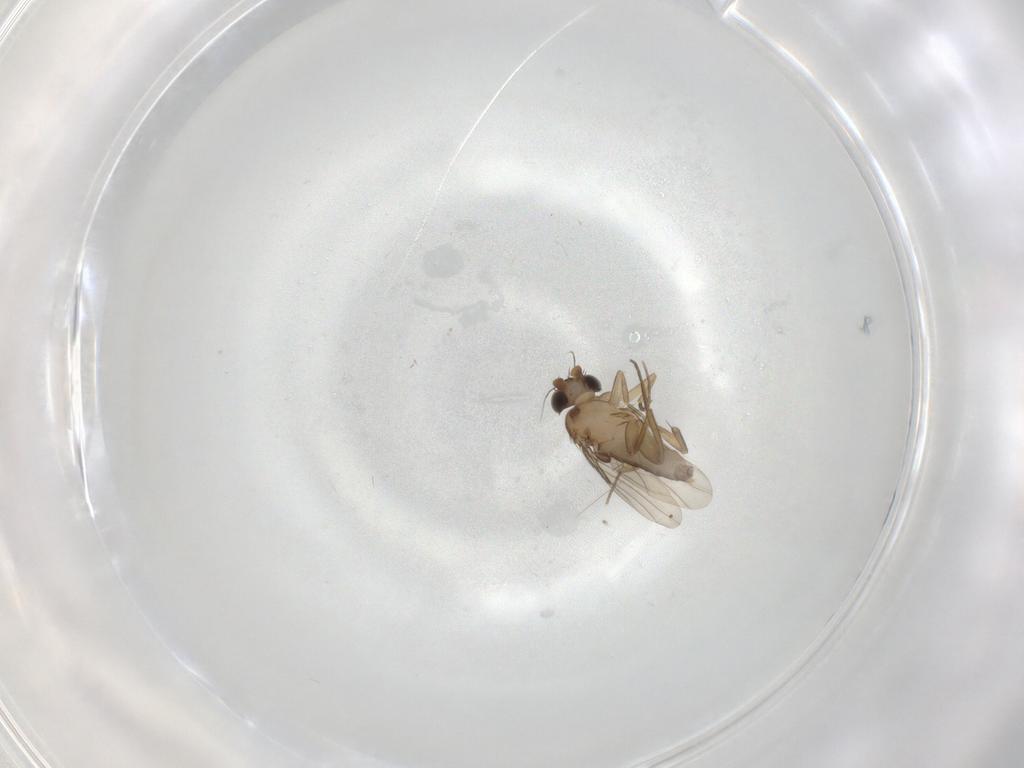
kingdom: Animalia
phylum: Arthropoda
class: Insecta
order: Diptera
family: Phoridae
